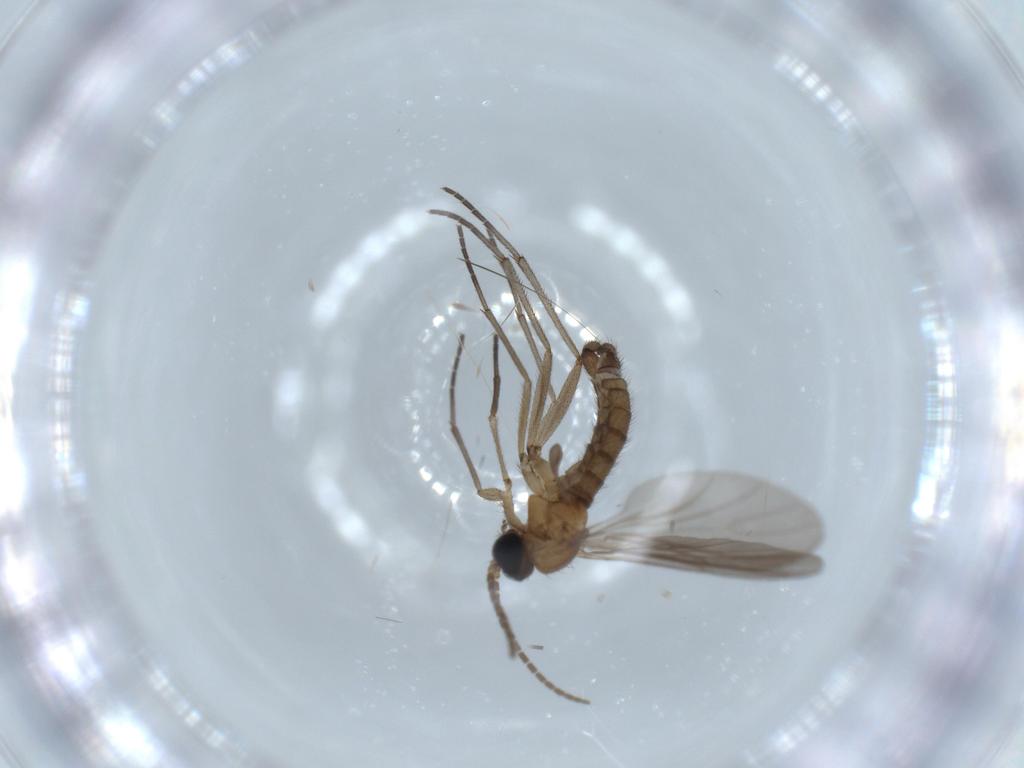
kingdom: Animalia
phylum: Arthropoda
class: Insecta
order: Diptera
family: Sciaridae
